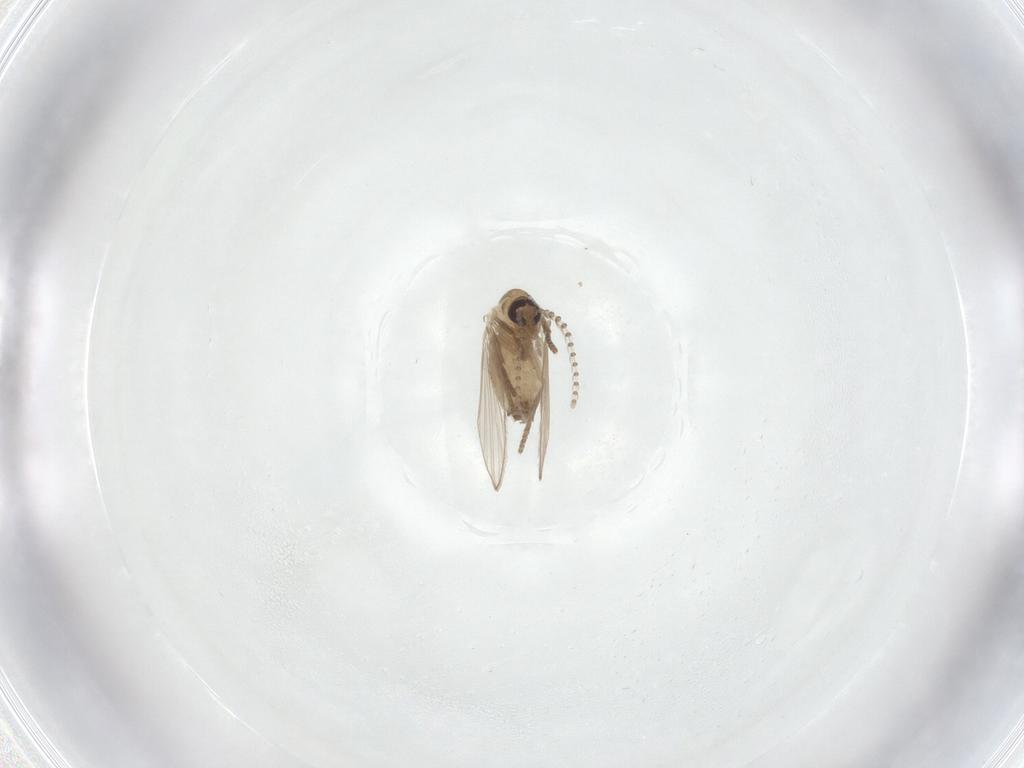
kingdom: Animalia
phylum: Arthropoda
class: Insecta
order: Diptera
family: Psychodidae
